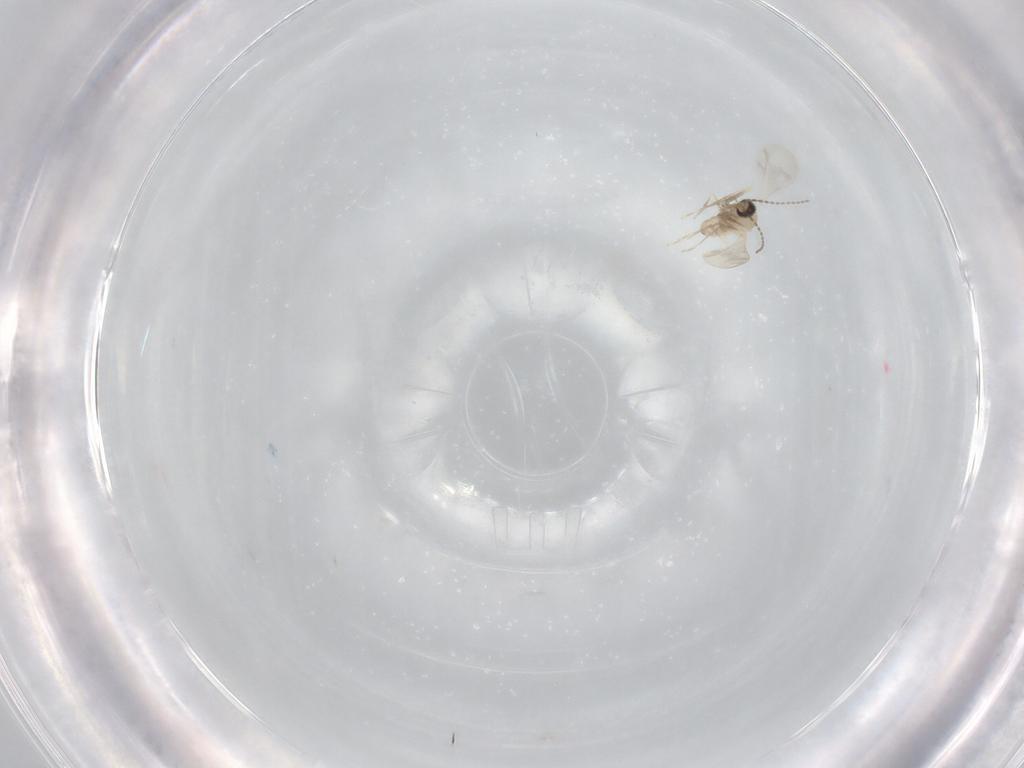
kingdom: Animalia
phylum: Arthropoda
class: Insecta
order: Diptera
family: Cecidomyiidae
